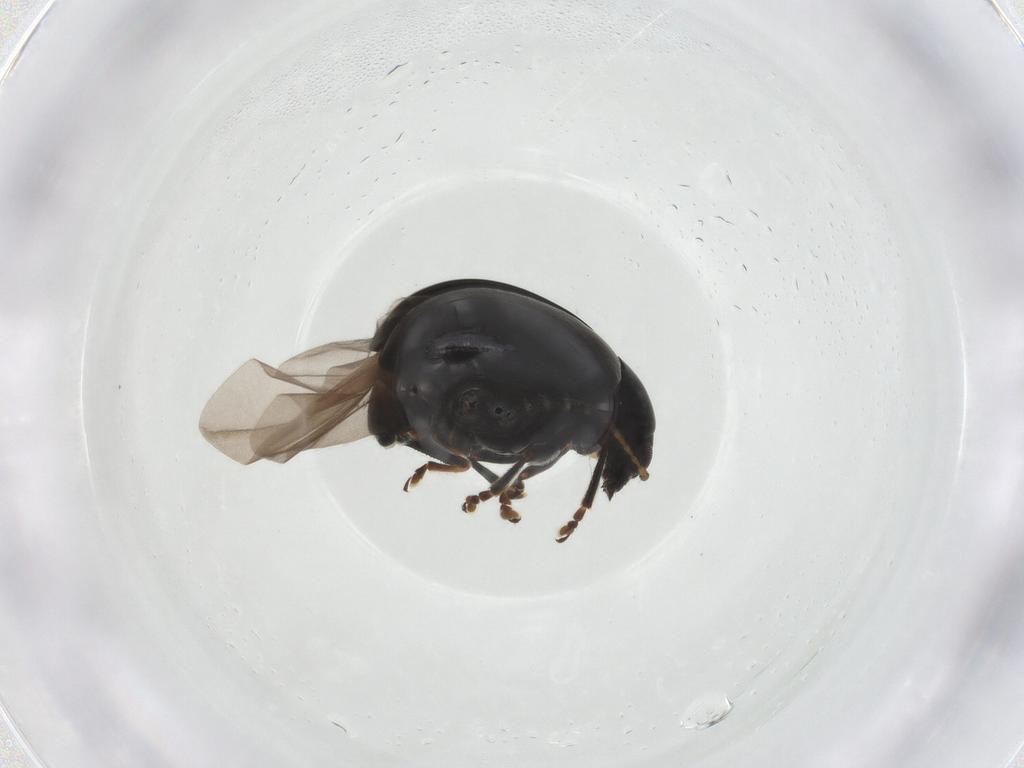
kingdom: Animalia
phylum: Arthropoda
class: Insecta
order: Coleoptera
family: Chrysomelidae
